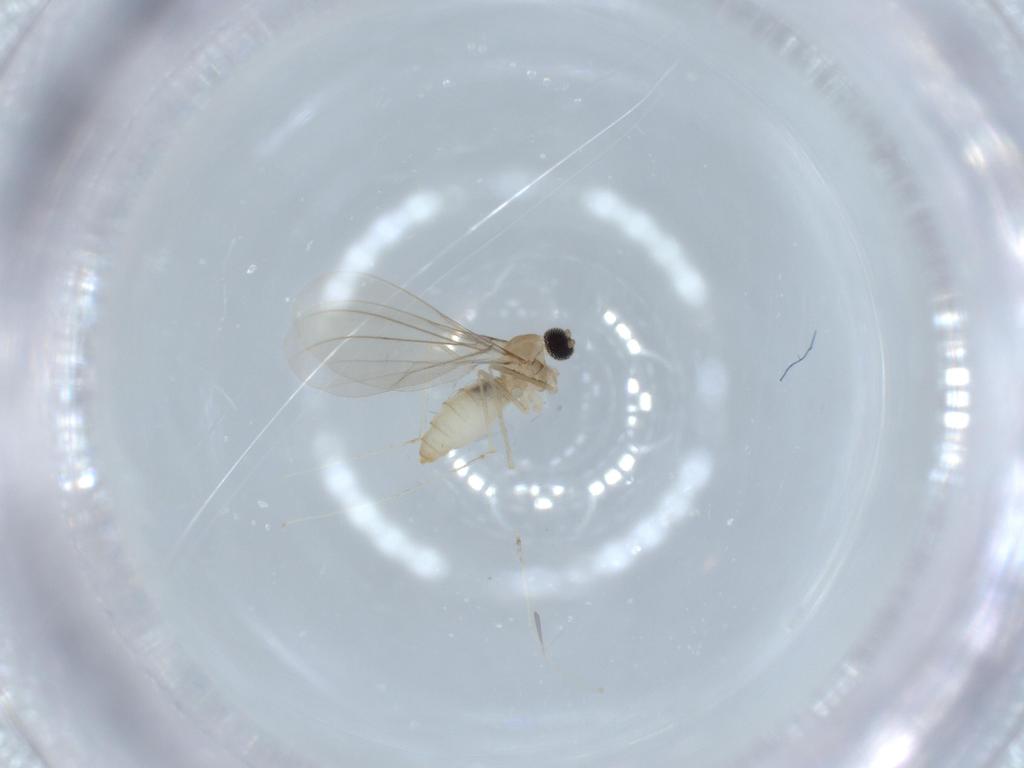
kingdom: Animalia
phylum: Arthropoda
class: Insecta
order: Diptera
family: Cecidomyiidae
